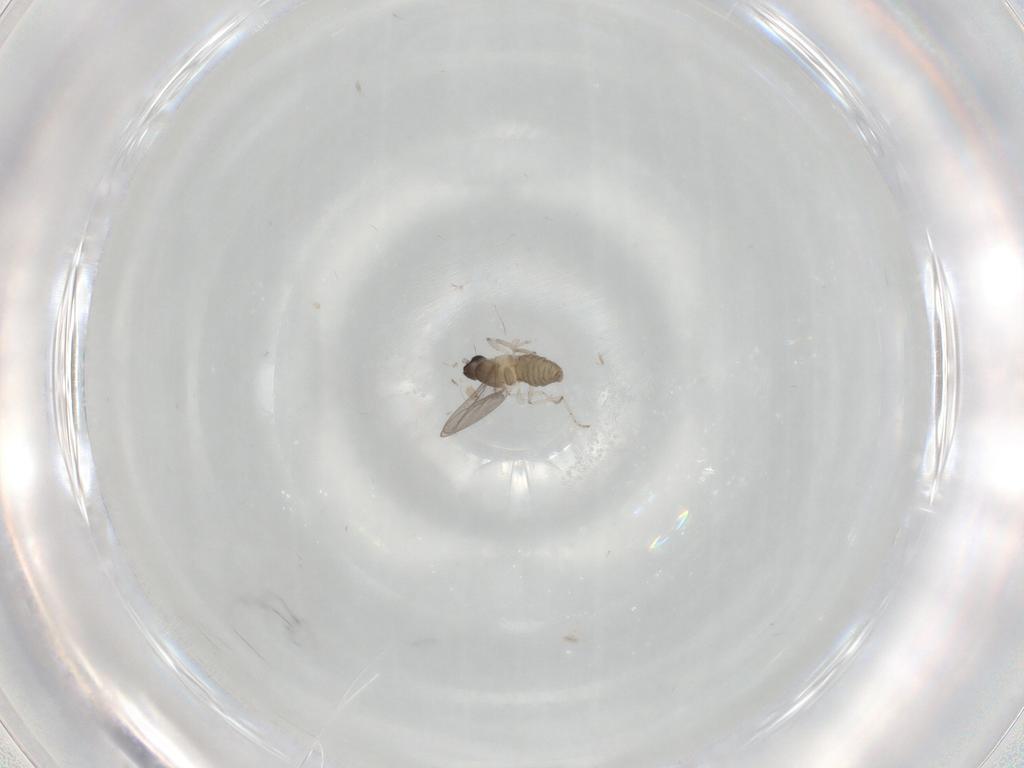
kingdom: Animalia
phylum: Arthropoda
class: Insecta
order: Diptera
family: Cecidomyiidae
